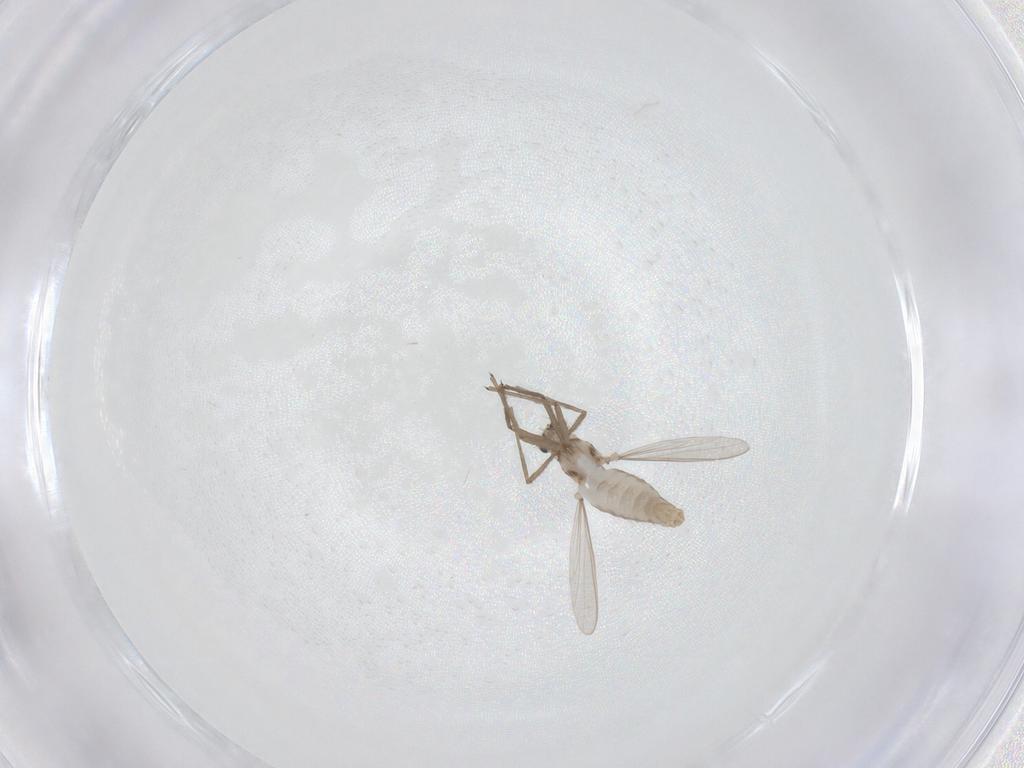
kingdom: Animalia
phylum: Arthropoda
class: Insecta
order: Diptera
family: Chironomidae
